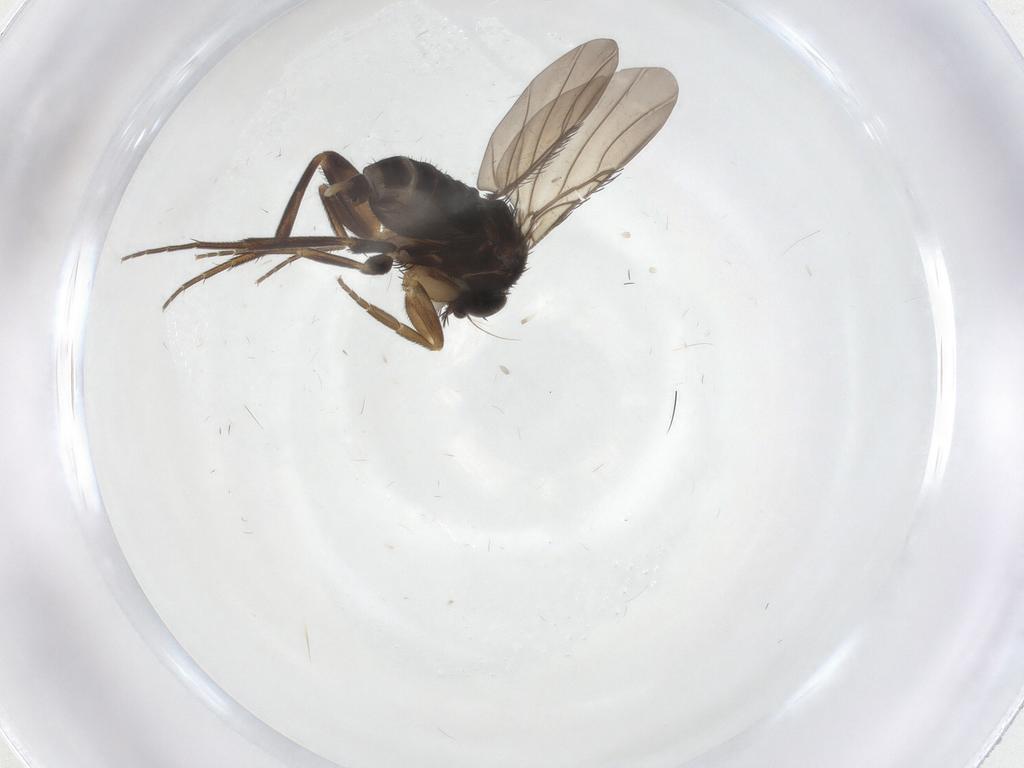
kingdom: Animalia
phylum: Arthropoda
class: Insecta
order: Diptera
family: Phoridae
